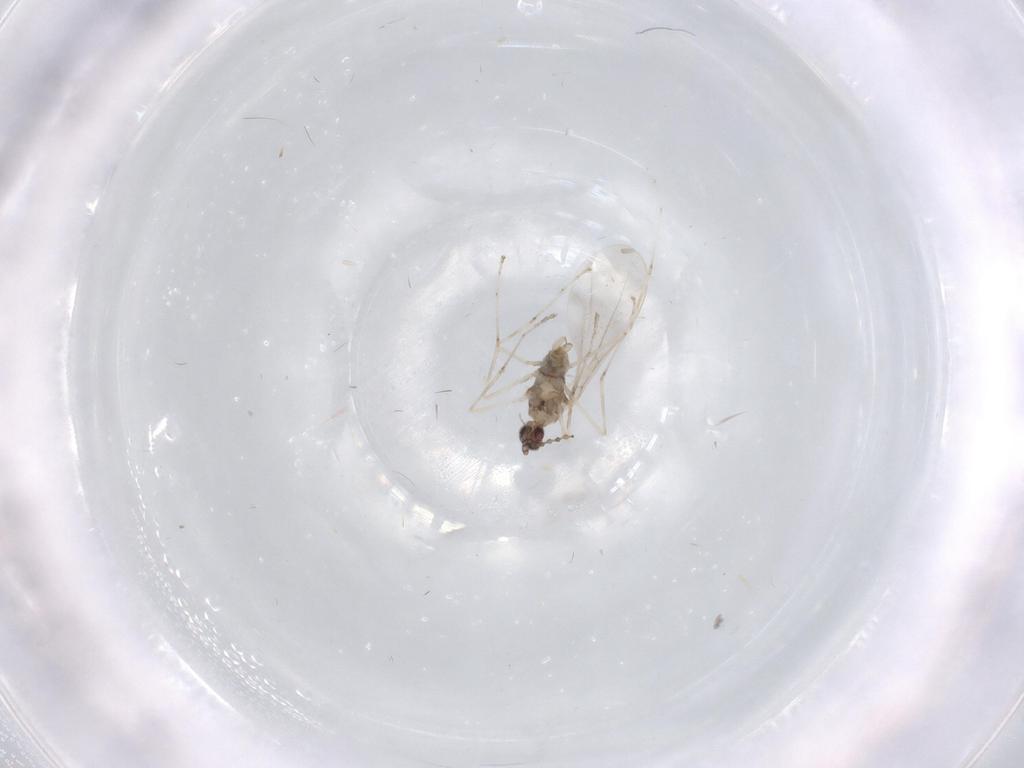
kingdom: Animalia
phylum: Arthropoda
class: Insecta
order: Diptera
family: Cecidomyiidae
